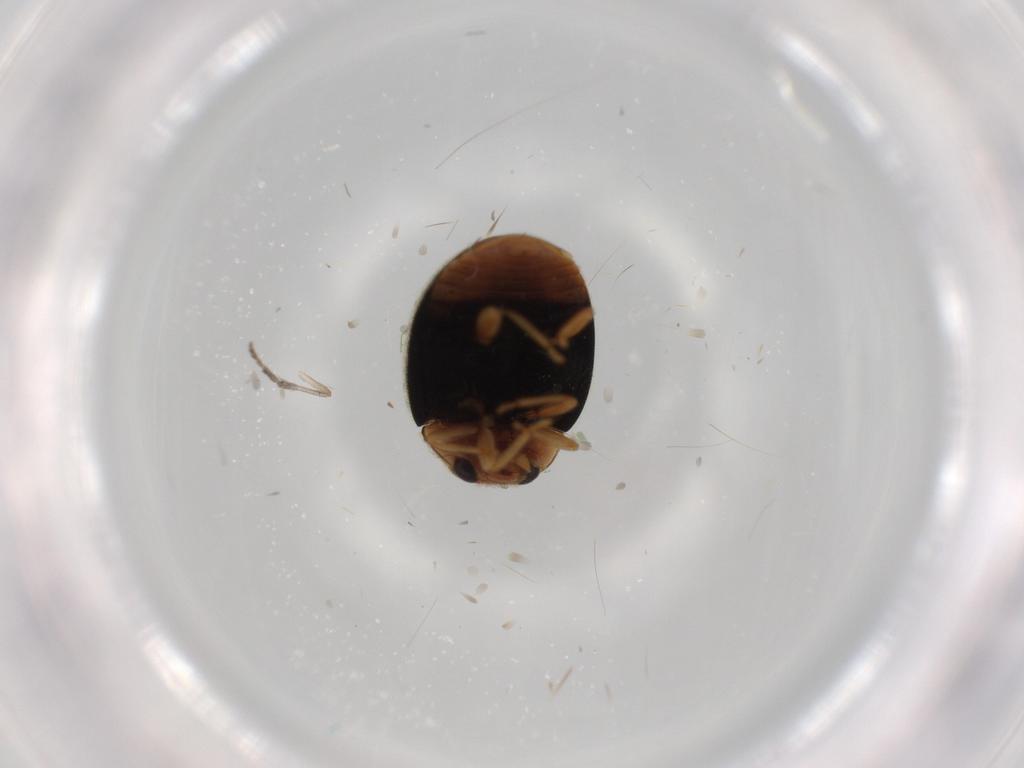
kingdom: Animalia
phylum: Arthropoda
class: Insecta
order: Coleoptera
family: Coccinellidae
